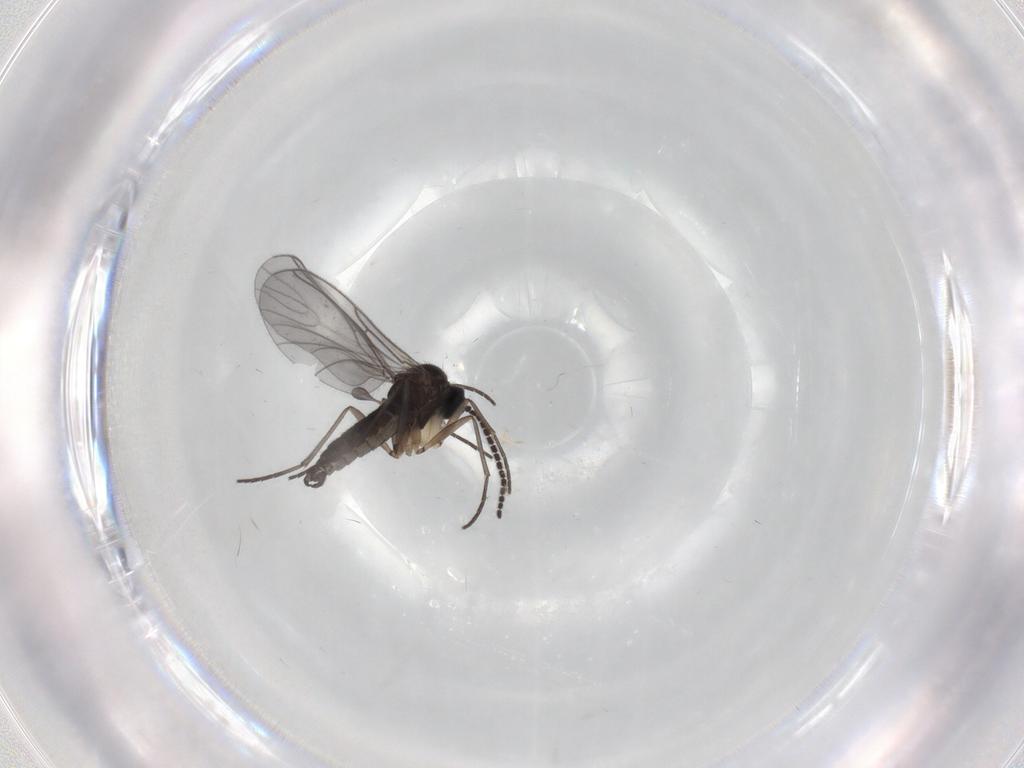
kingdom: Animalia
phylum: Arthropoda
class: Insecta
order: Diptera
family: Sciaridae
